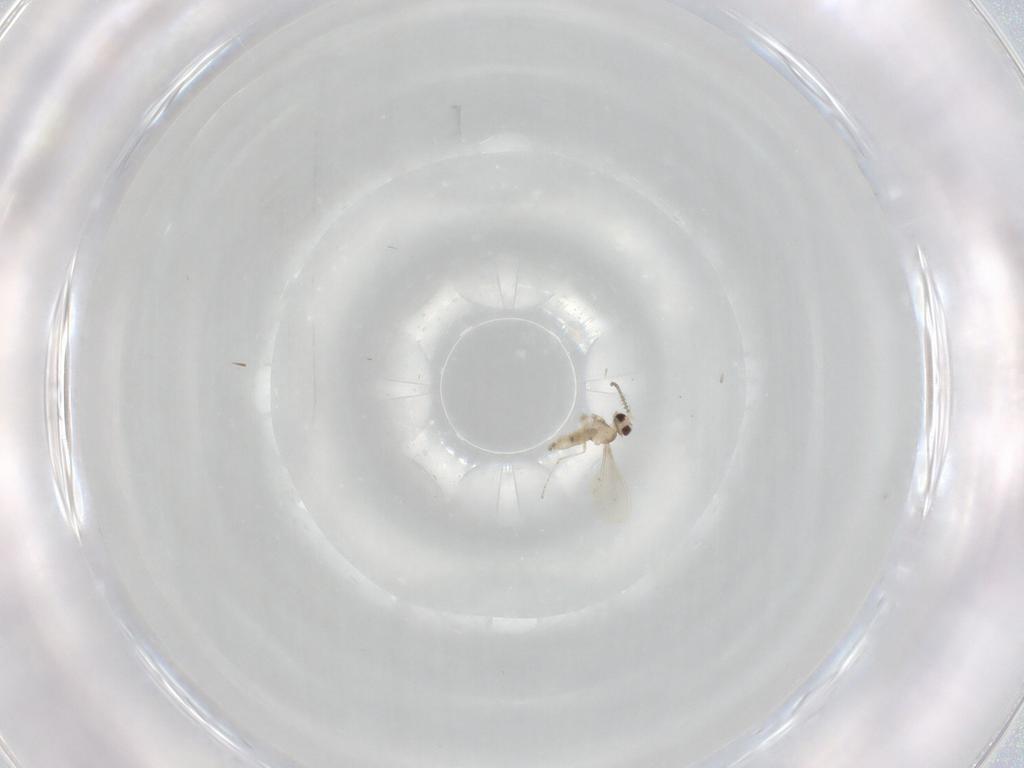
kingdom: Animalia
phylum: Arthropoda
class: Insecta
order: Diptera
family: Cecidomyiidae
